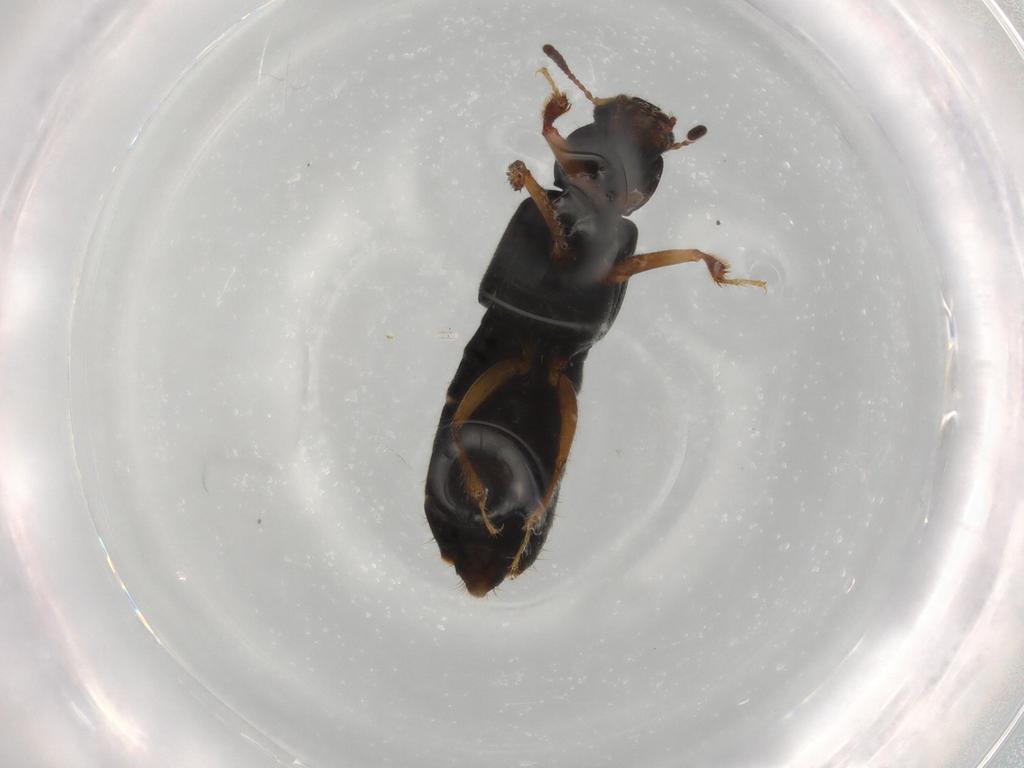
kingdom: Animalia
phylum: Arthropoda
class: Insecta
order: Coleoptera
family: Staphylinidae
